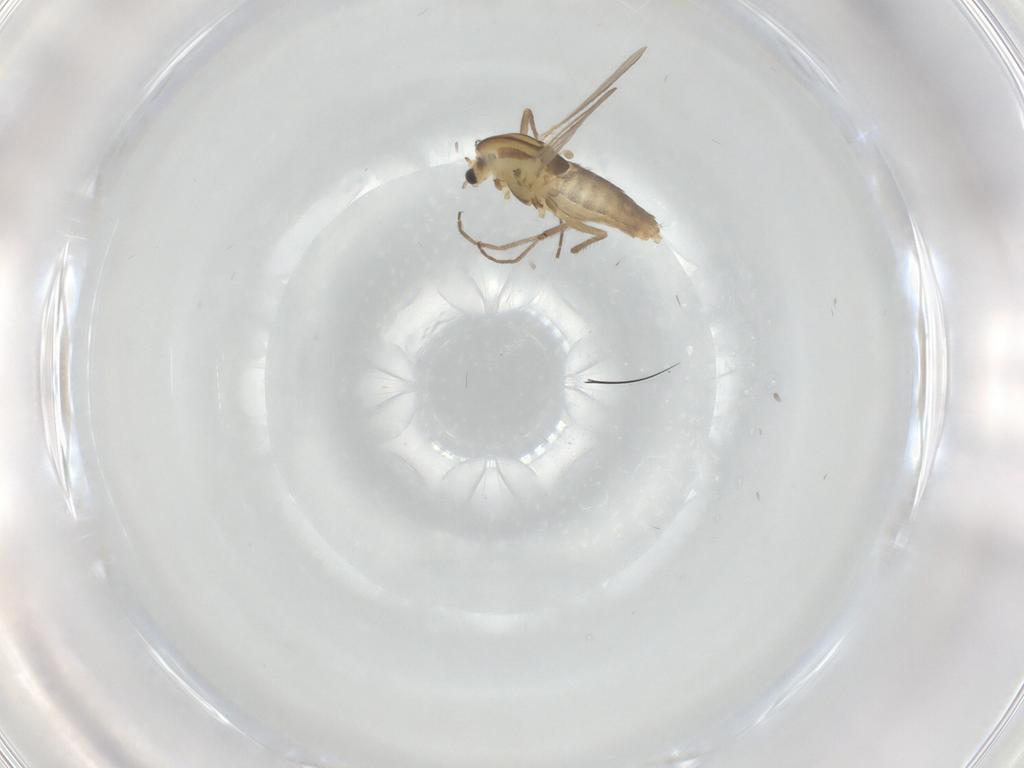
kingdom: Animalia
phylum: Arthropoda
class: Insecta
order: Diptera
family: Chironomidae
